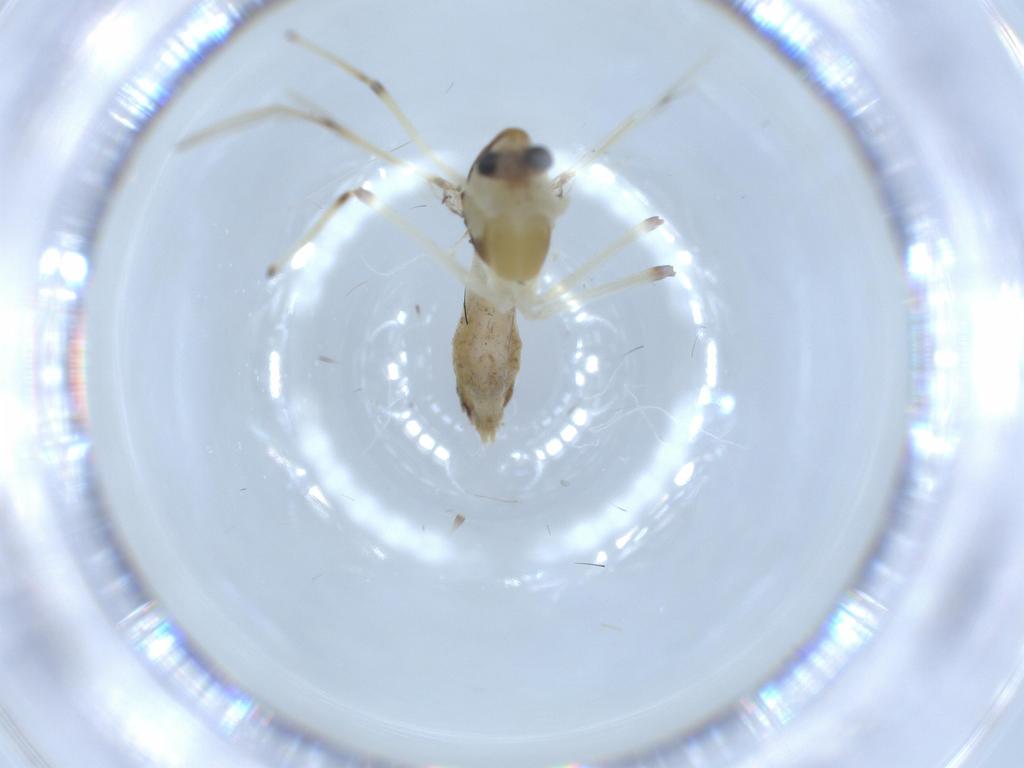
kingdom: Animalia
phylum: Arthropoda
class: Insecta
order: Diptera
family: Chironomidae
